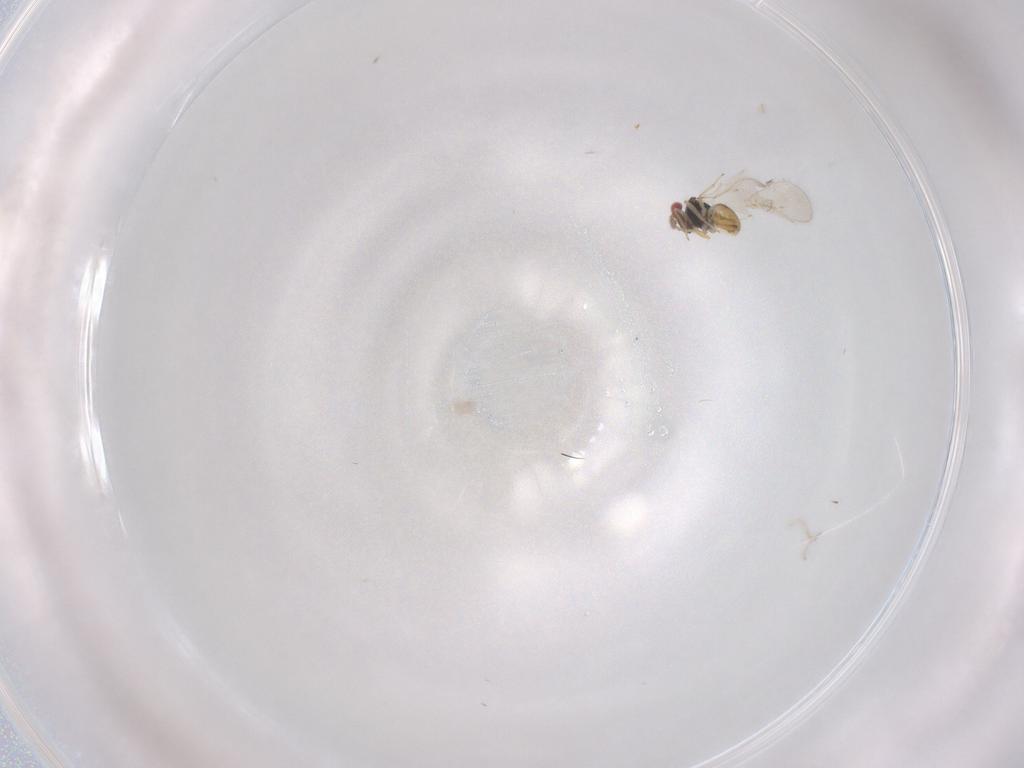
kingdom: Animalia
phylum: Arthropoda
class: Insecta
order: Hymenoptera
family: Eulophidae
